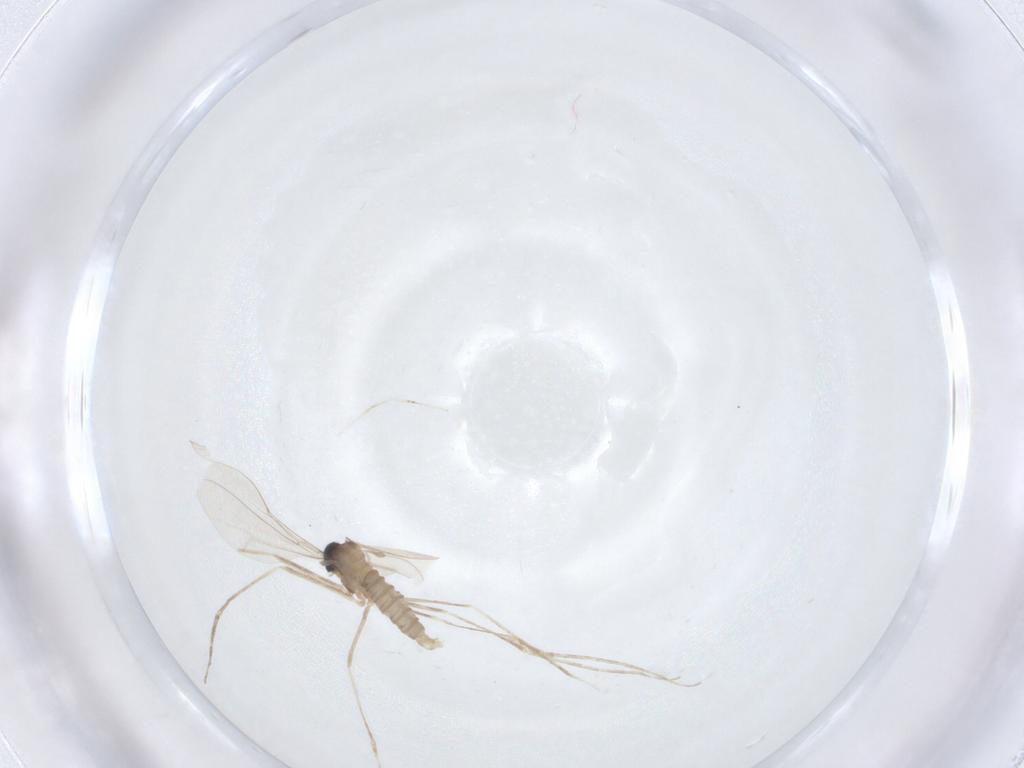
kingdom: Animalia
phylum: Arthropoda
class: Insecta
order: Diptera
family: Cecidomyiidae
